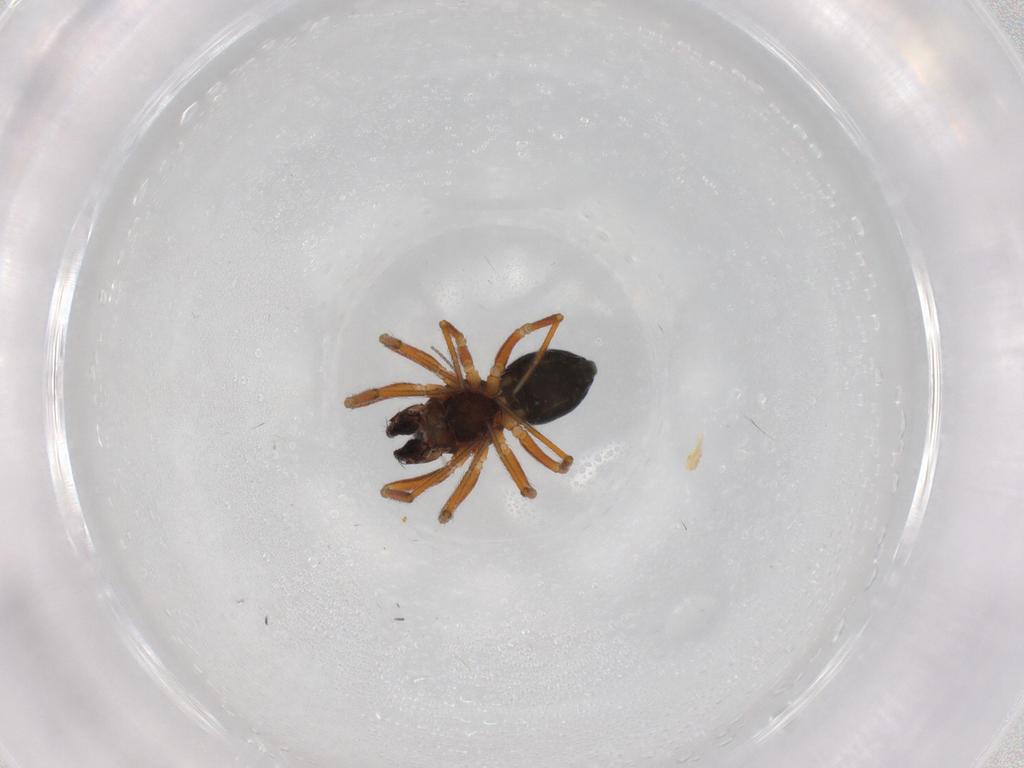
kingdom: Animalia
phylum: Arthropoda
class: Arachnida
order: Araneae
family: Linyphiidae
